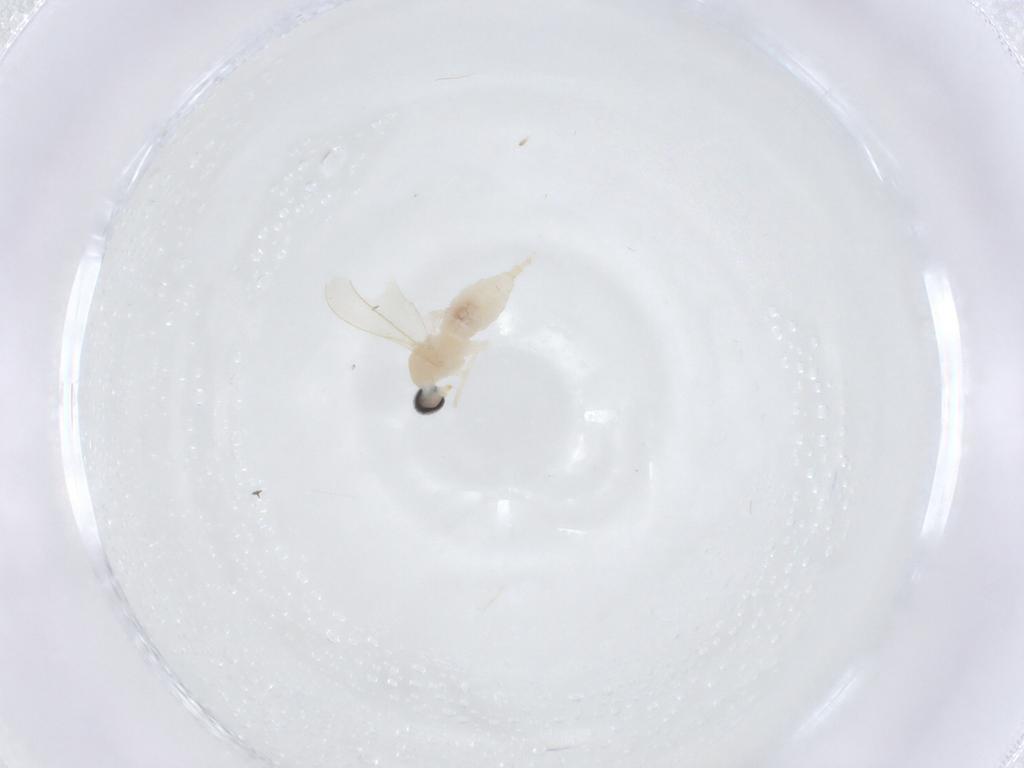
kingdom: Animalia
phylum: Arthropoda
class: Insecta
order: Diptera
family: Cecidomyiidae
